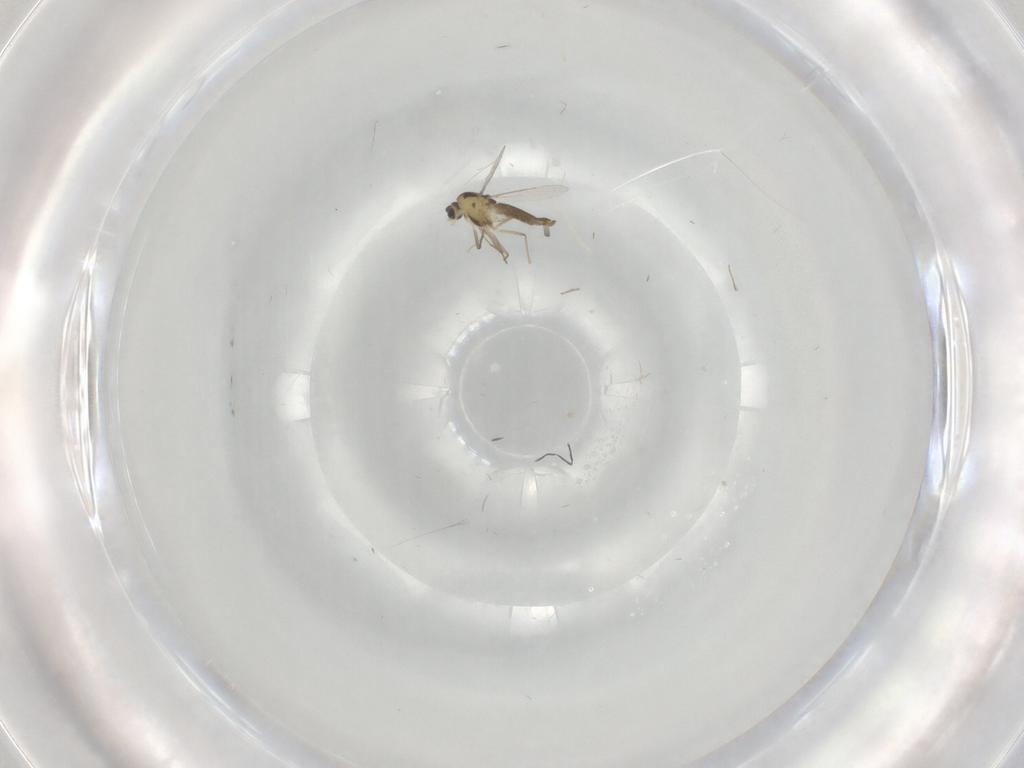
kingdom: Animalia
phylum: Arthropoda
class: Insecta
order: Diptera
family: Chironomidae
